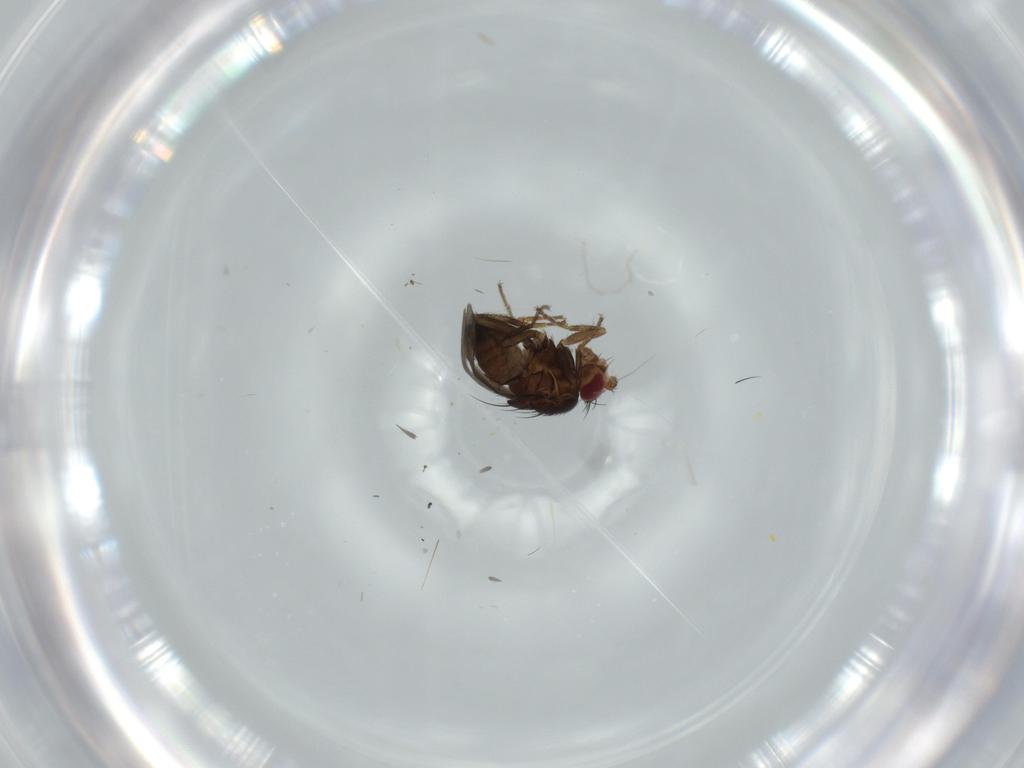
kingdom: Animalia
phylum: Arthropoda
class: Insecta
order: Diptera
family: Sphaeroceridae
